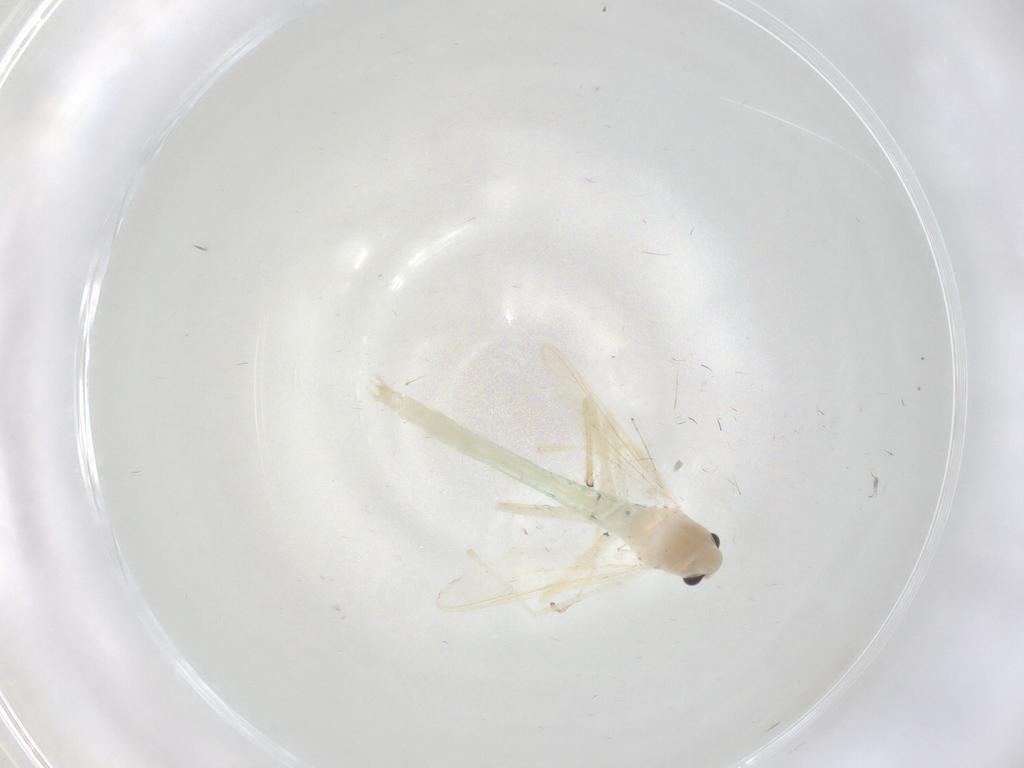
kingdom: Animalia
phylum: Arthropoda
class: Insecta
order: Diptera
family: Chironomidae
